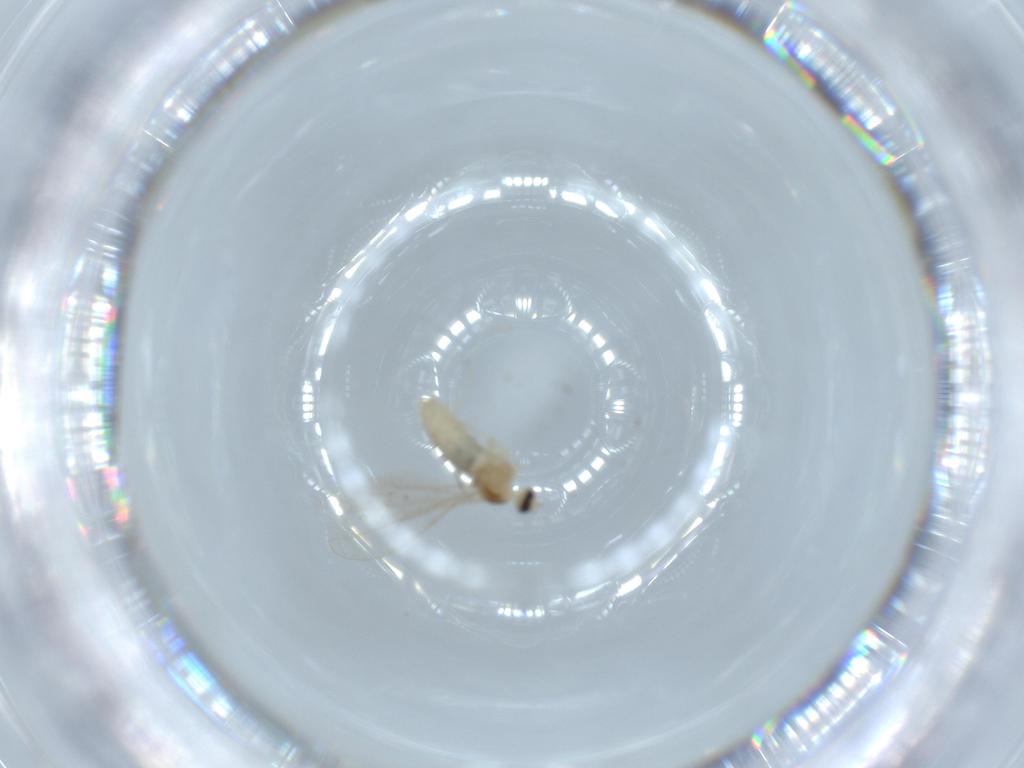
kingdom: Animalia
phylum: Arthropoda
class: Insecta
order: Diptera
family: Cecidomyiidae
